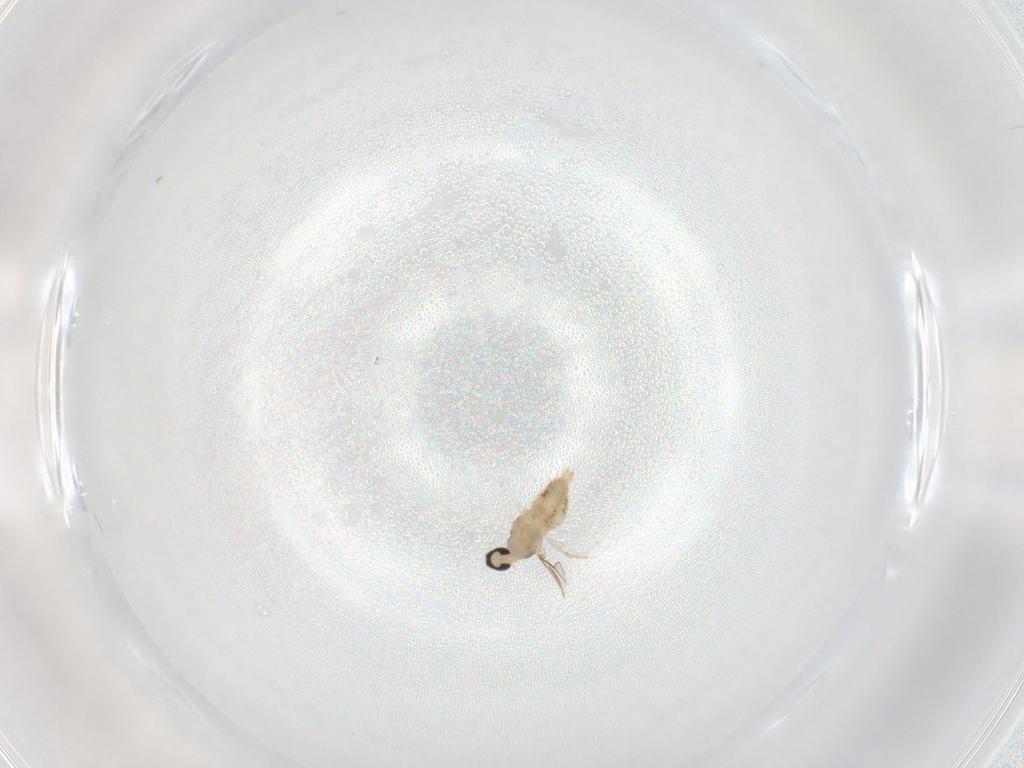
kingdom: Animalia
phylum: Arthropoda
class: Insecta
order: Diptera
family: Cecidomyiidae
